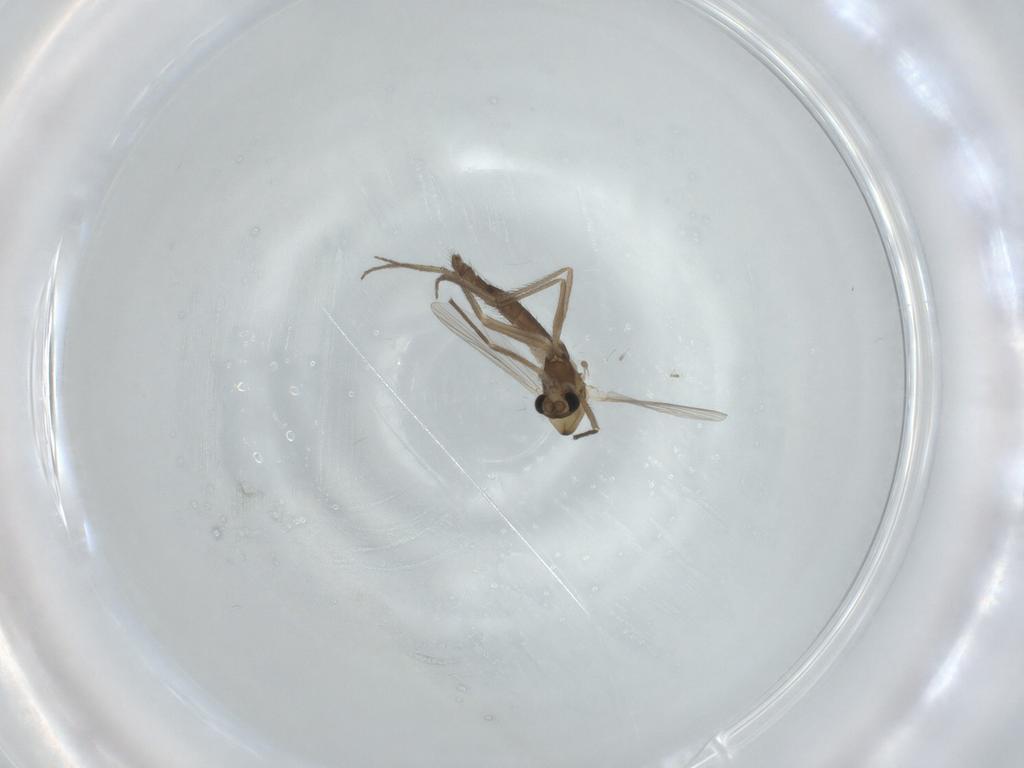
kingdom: Animalia
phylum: Arthropoda
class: Insecta
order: Diptera
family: Chironomidae
